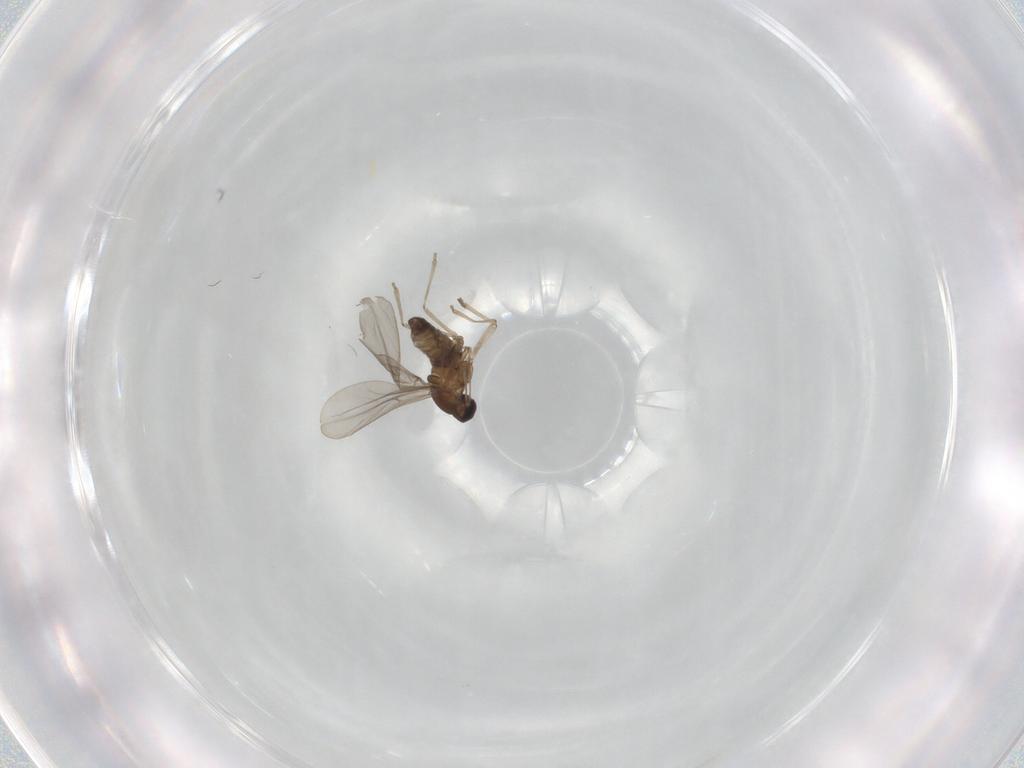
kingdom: Animalia
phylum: Arthropoda
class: Insecta
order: Diptera
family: Cecidomyiidae
